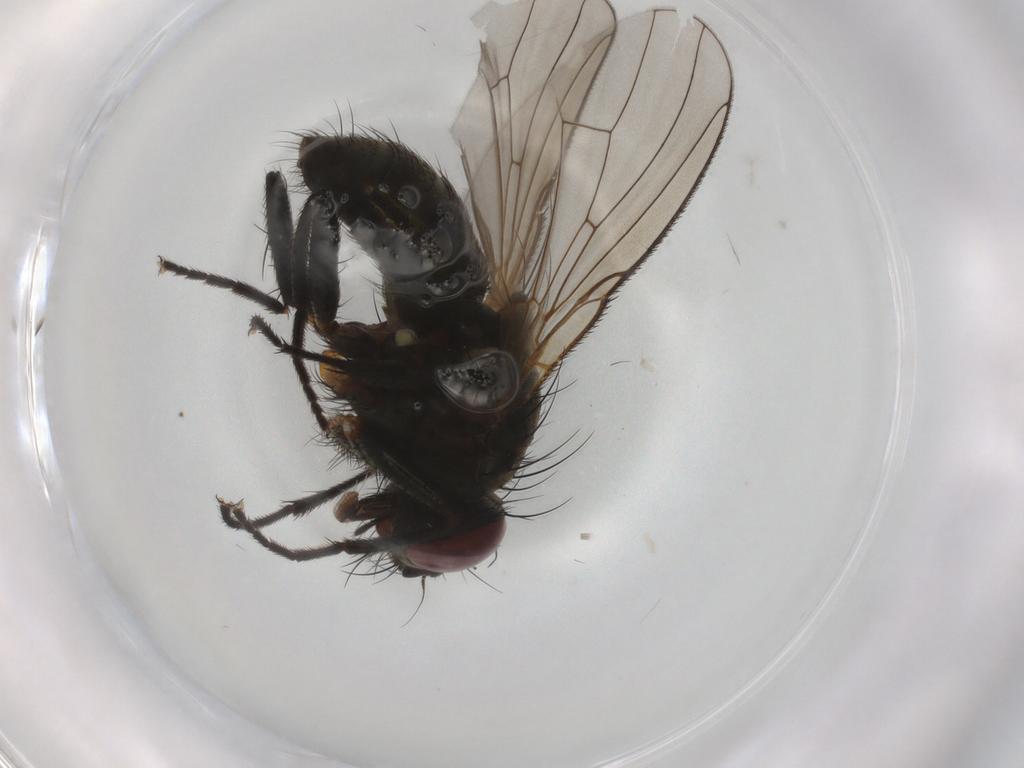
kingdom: Animalia
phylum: Arthropoda
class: Insecta
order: Diptera
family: Muscidae
